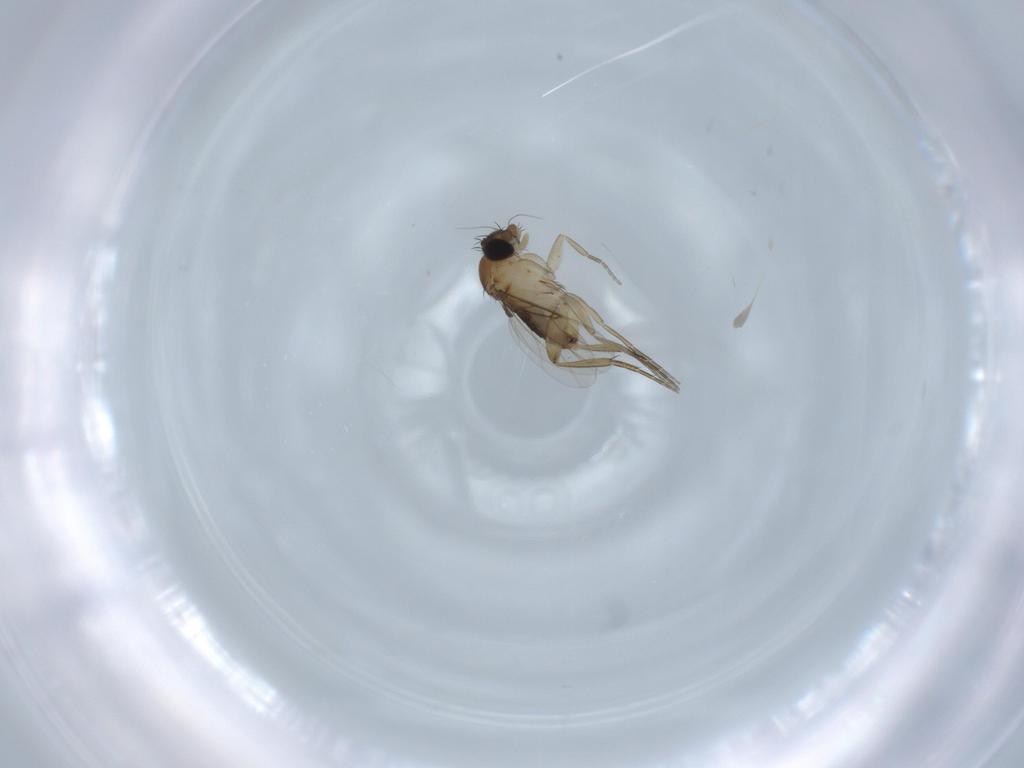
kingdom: Animalia
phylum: Arthropoda
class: Insecta
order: Diptera
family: Phoridae
